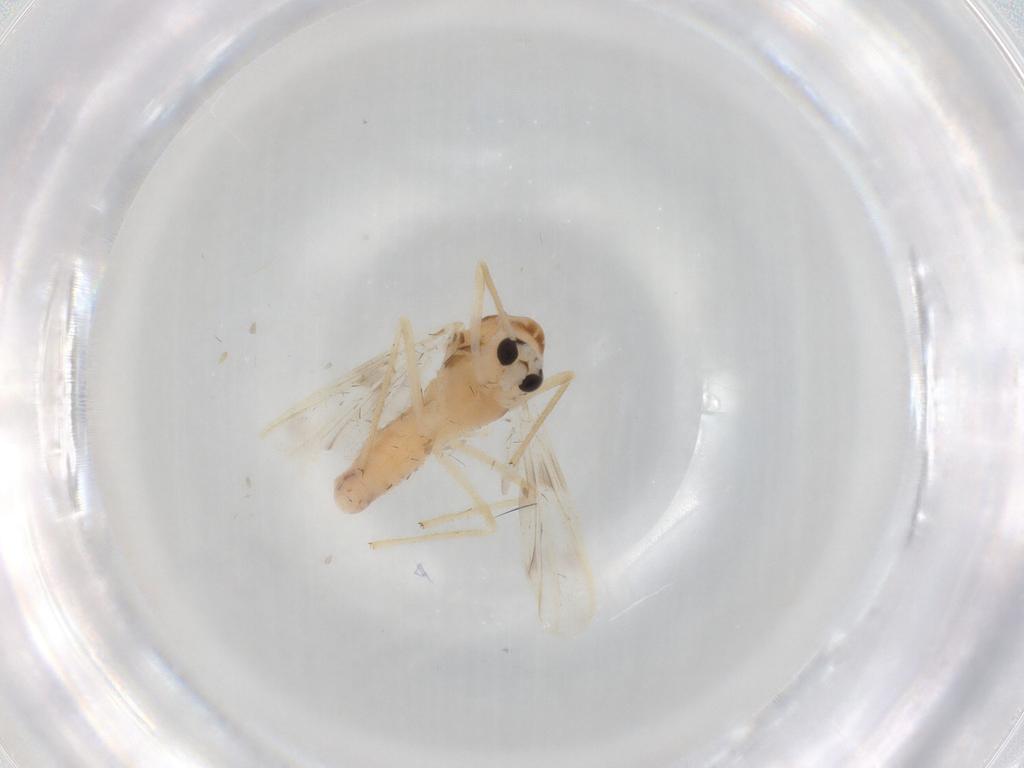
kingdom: Animalia
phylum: Arthropoda
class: Insecta
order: Diptera
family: Chironomidae
